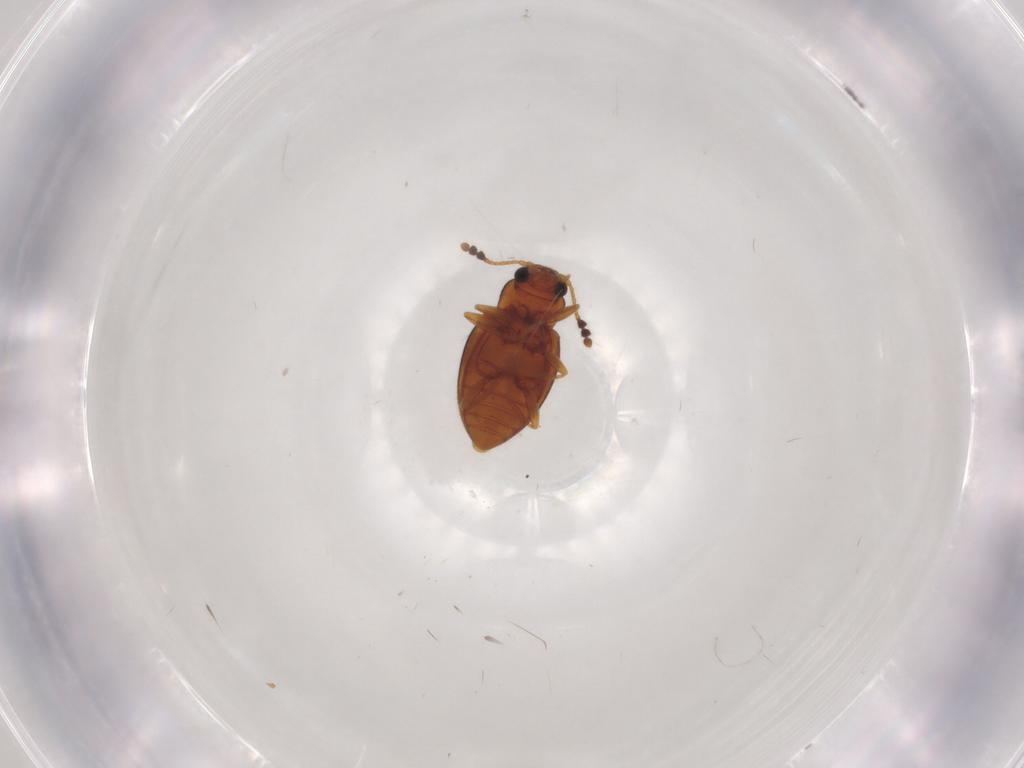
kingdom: Animalia
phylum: Arthropoda
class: Insecta
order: Coleoptera
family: Erotylidae
